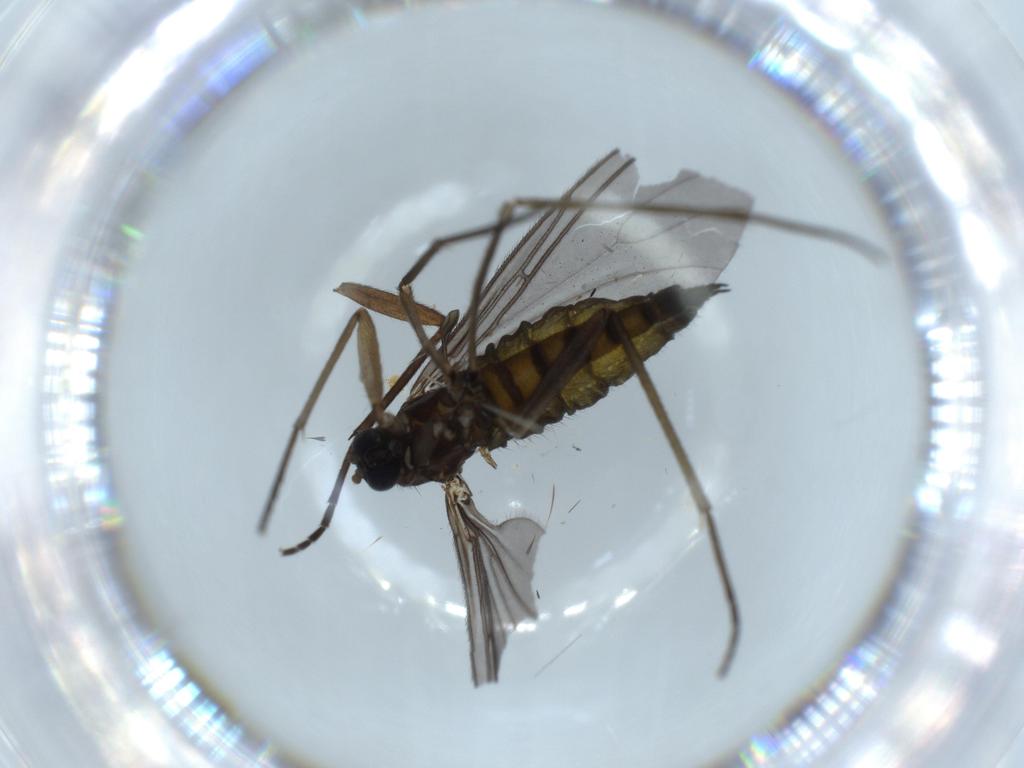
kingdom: Animalia
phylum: Arthropoda
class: Insecta
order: Diptera
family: Sciaridae
